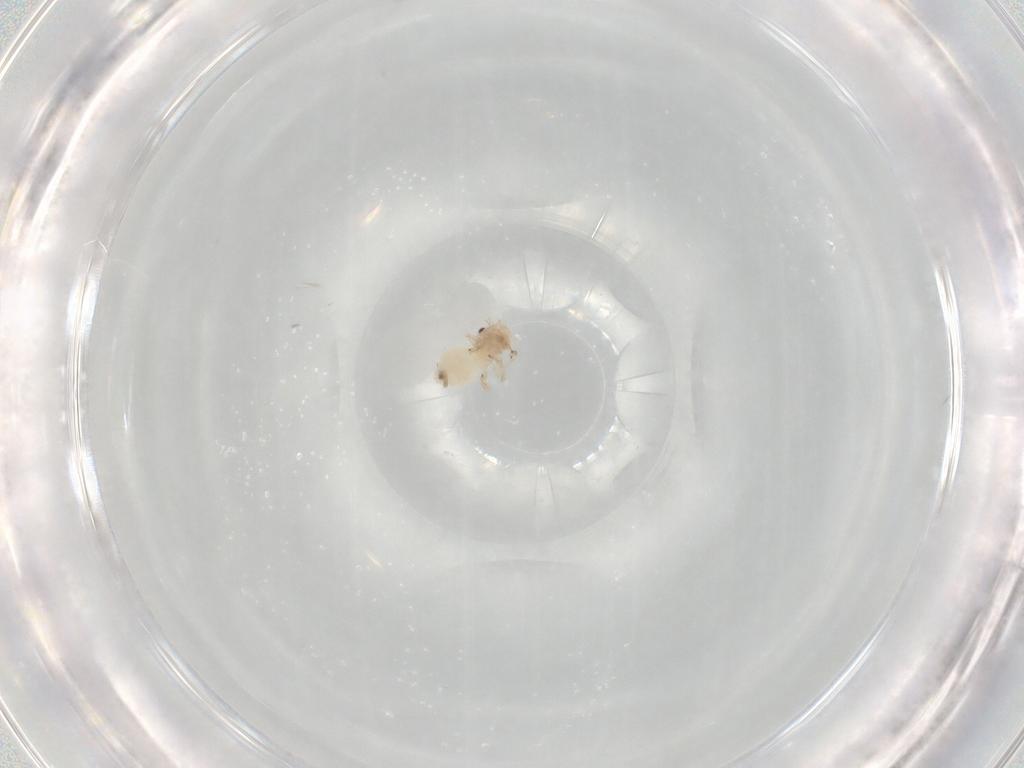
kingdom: Animalia
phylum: Arthropoda
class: Insecta
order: Psocodea
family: Stenopsocidae
